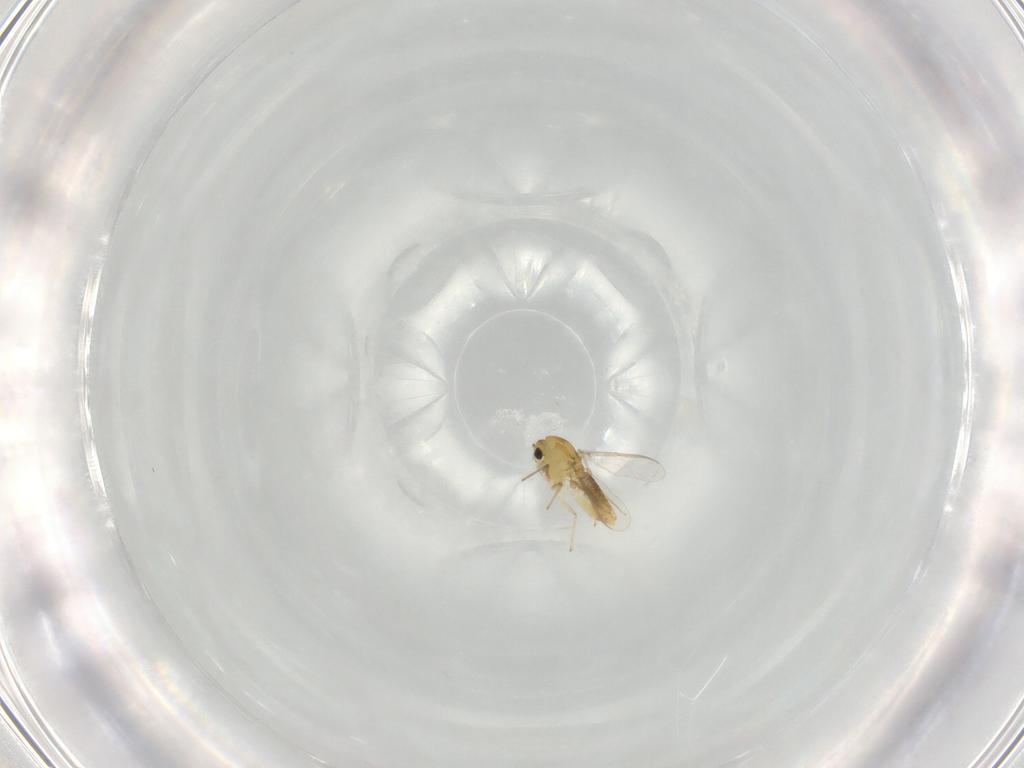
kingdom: Animalia
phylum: Arthropoda
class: Insecta
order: Diptera
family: Chironomidae
